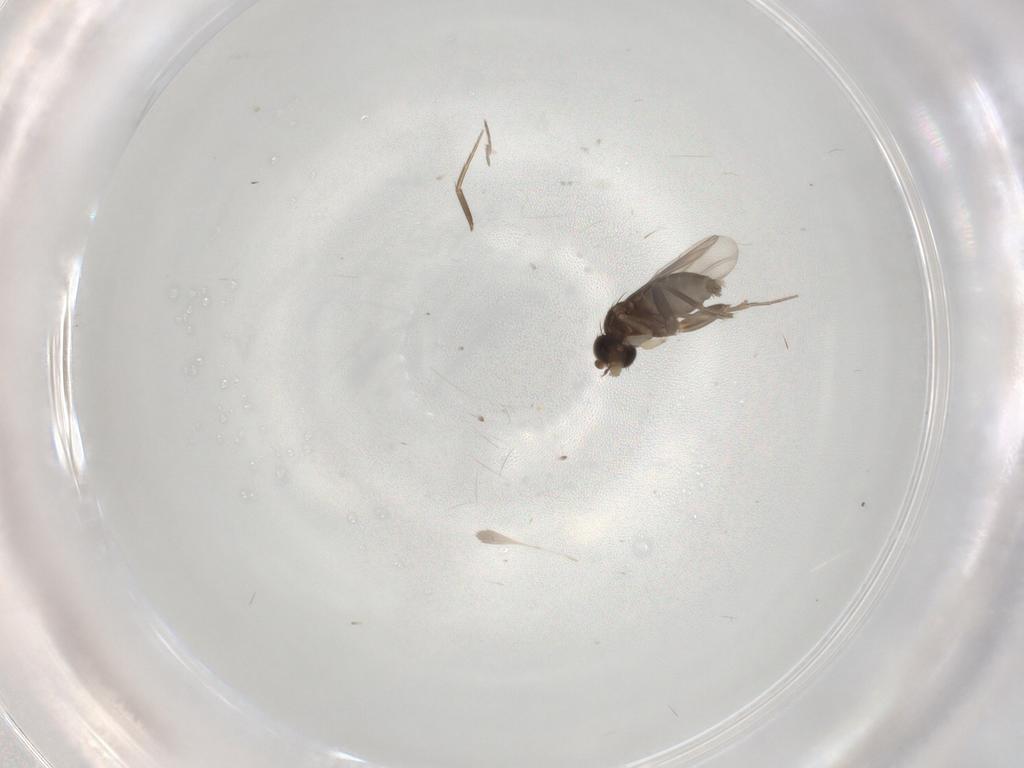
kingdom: Animalia
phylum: Arthropoda
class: Insecta
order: Diptera
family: Phoridae
